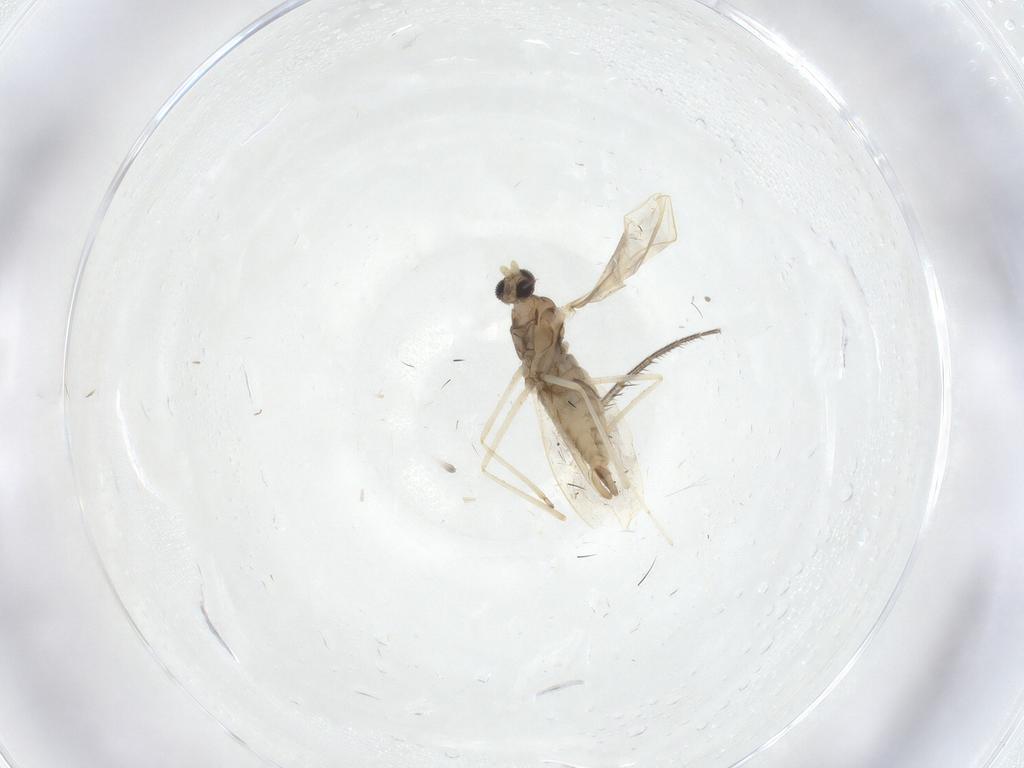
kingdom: Animalia
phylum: Arthropoda
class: Insecta
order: Diptera
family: Cecidomyiidae
